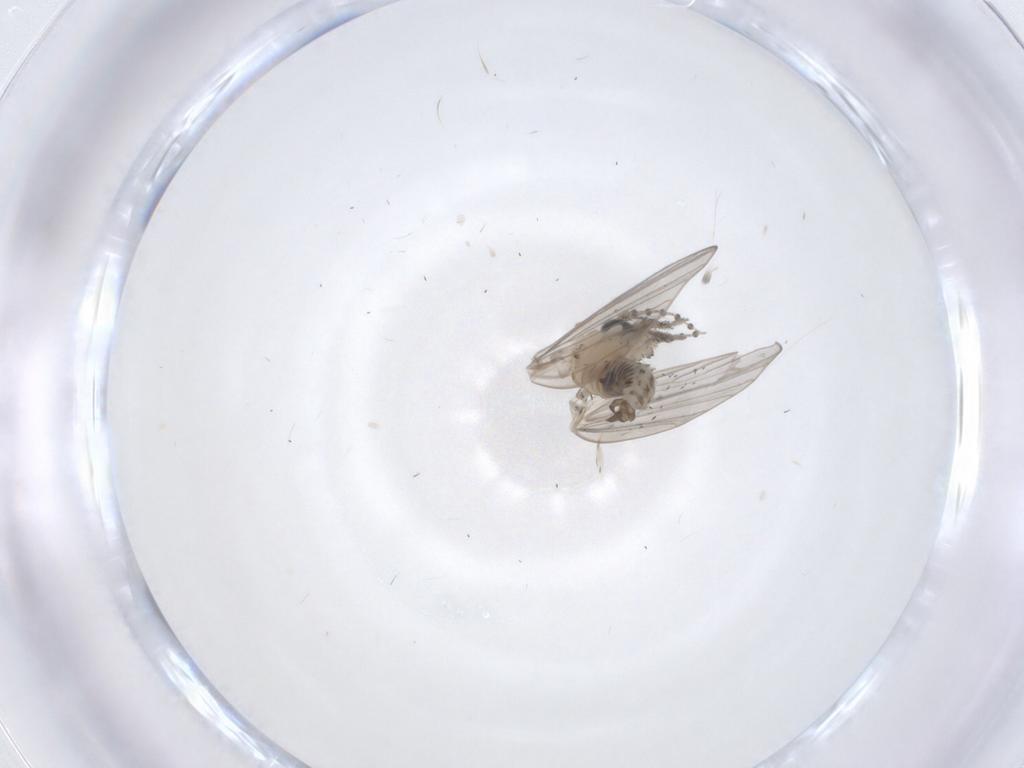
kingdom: Animalia
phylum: Arthropoda
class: Insecta
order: Diptera
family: Psychodidae
